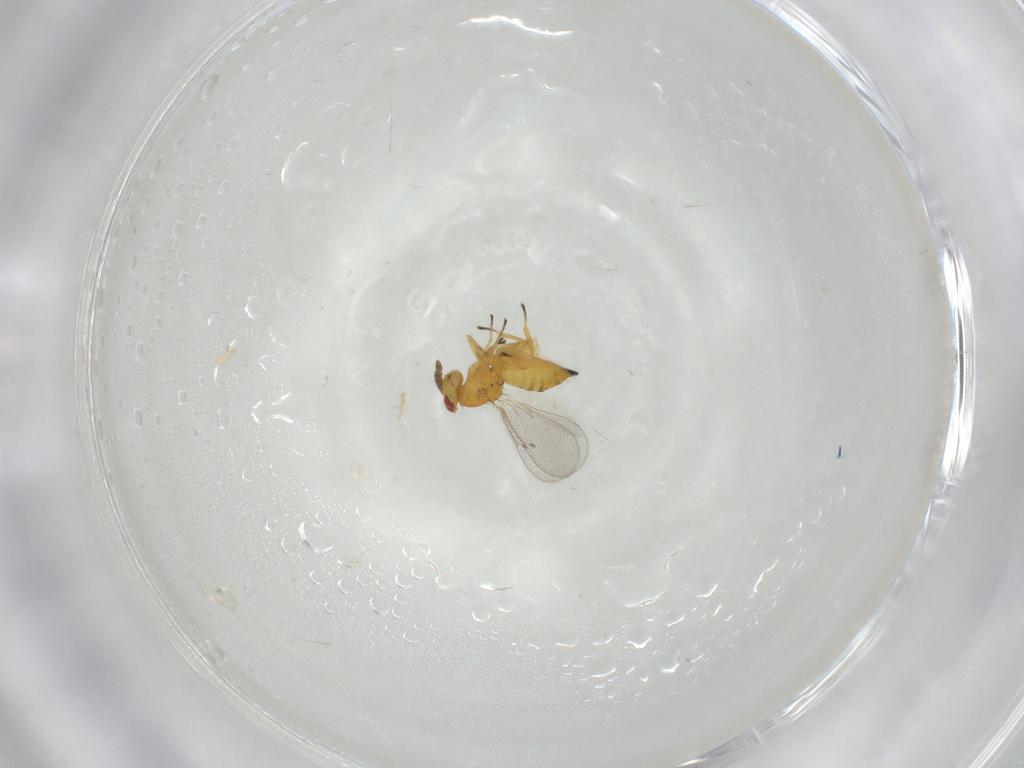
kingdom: Animalia
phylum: Arthropoda
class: Insecta
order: Hymenoptera
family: Eulophidae
